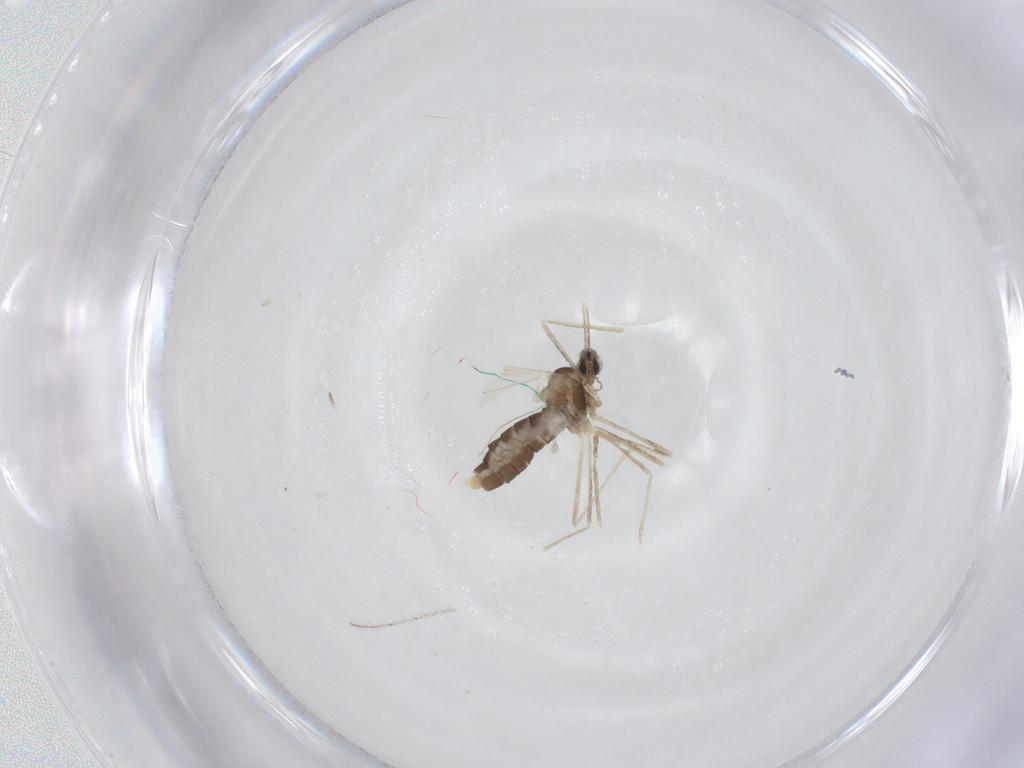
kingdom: Animalia
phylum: Arthropoda
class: Insecta
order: Diptera
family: Cecidomyiidae
